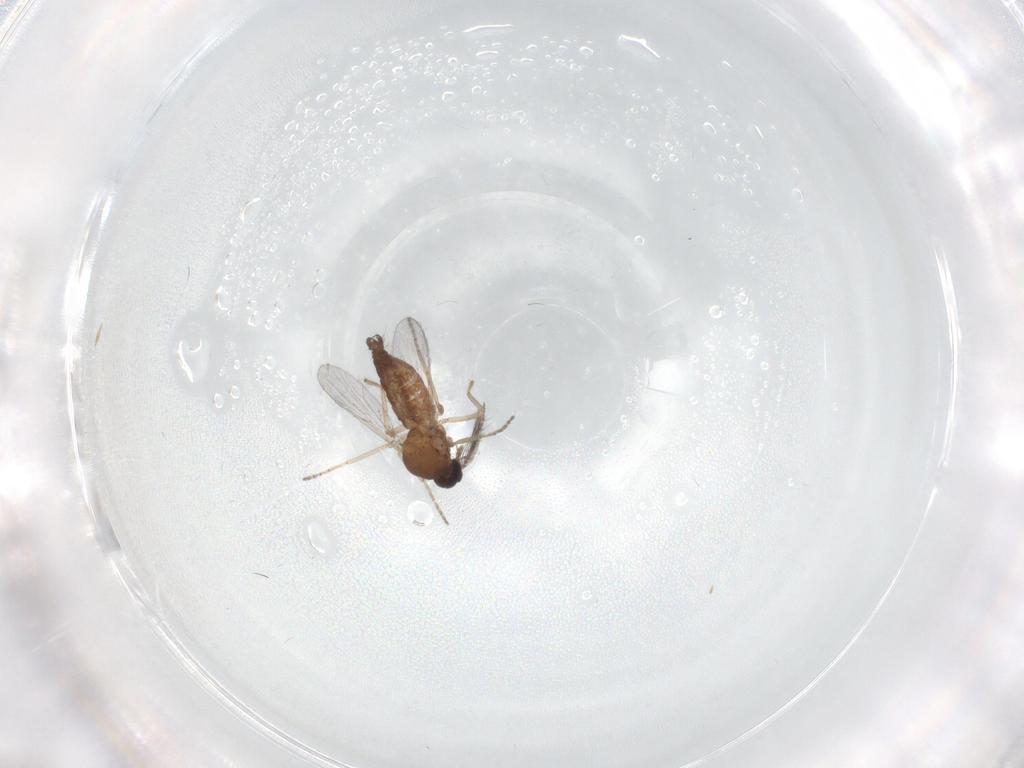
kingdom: Animalia
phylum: Arthropoda
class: Insecta
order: Diptera
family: Ceratopogonidae
